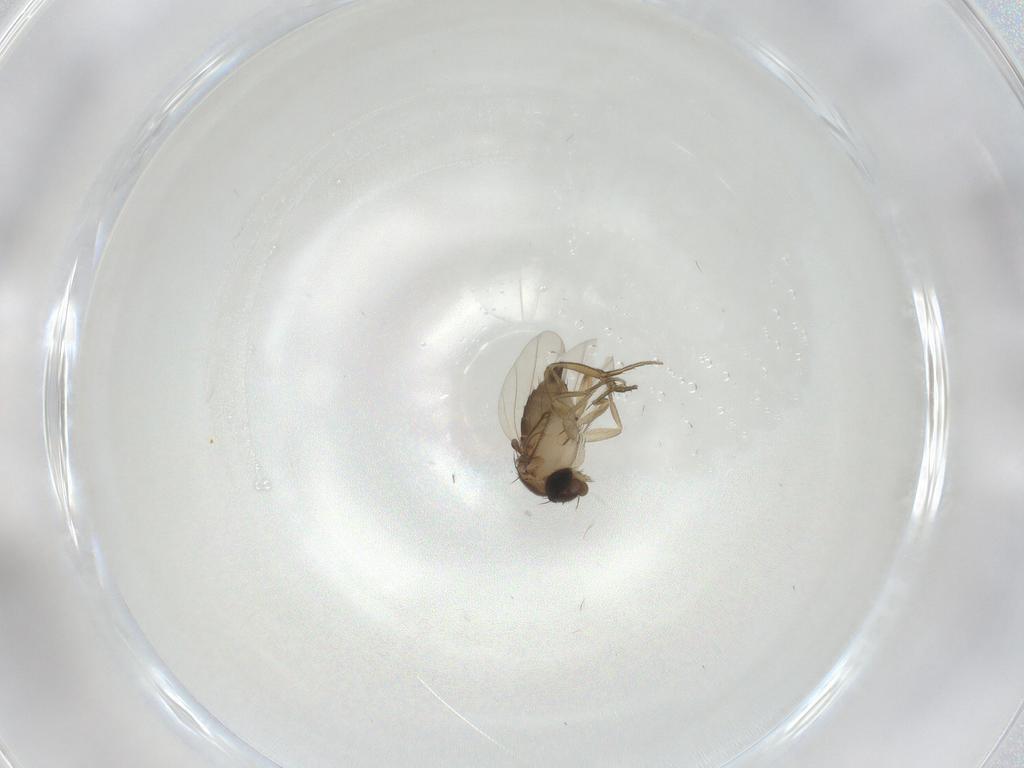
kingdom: Animalia
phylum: Arthropoda
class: Insecta
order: Diptera
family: Phoridae
